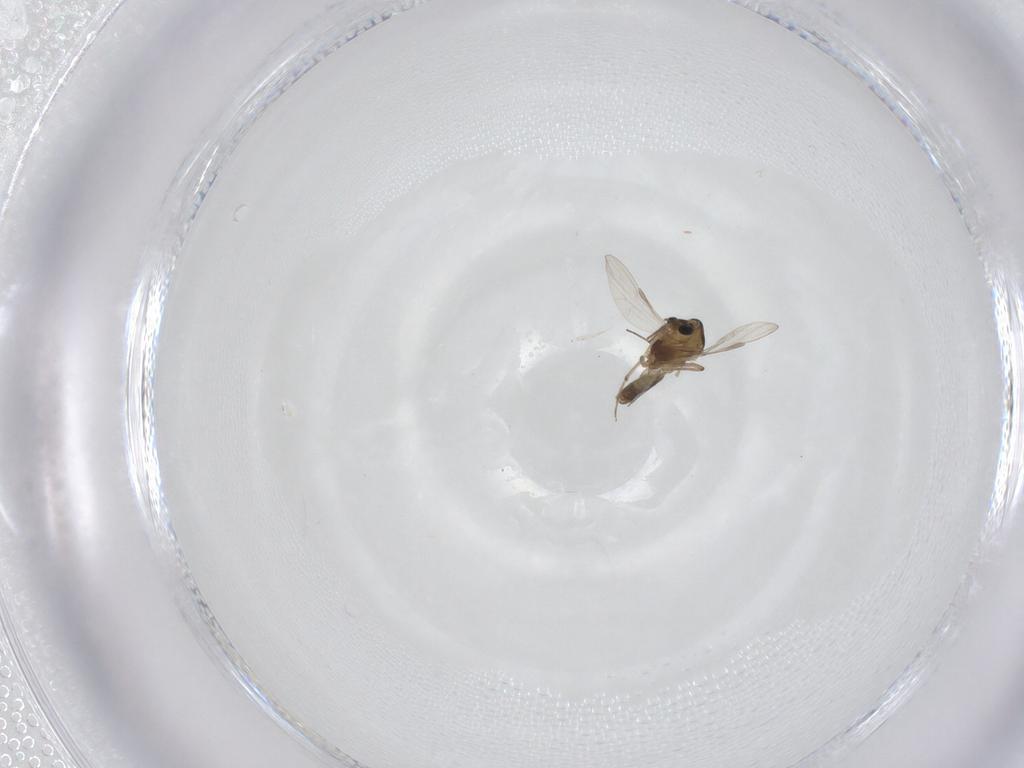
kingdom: Animalia
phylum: Arthropoda
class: Insecta
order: Diptera
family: Chironomidae
